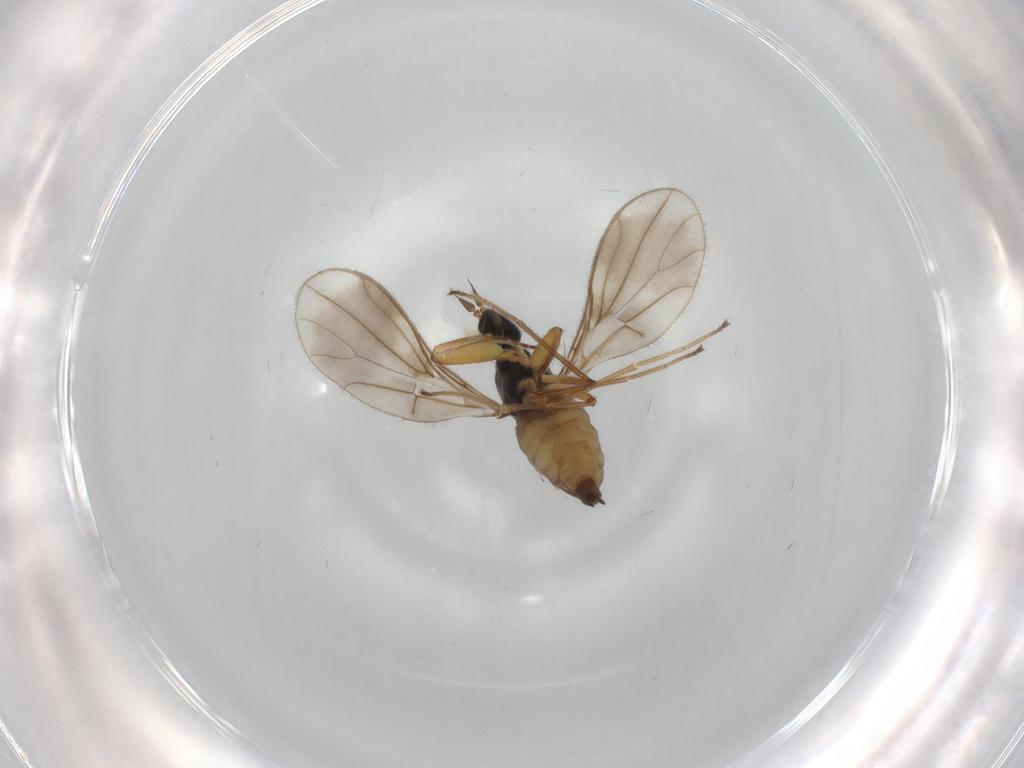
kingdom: Animalia
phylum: Arthropoda
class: Insecta
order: Diptera
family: Empididae
